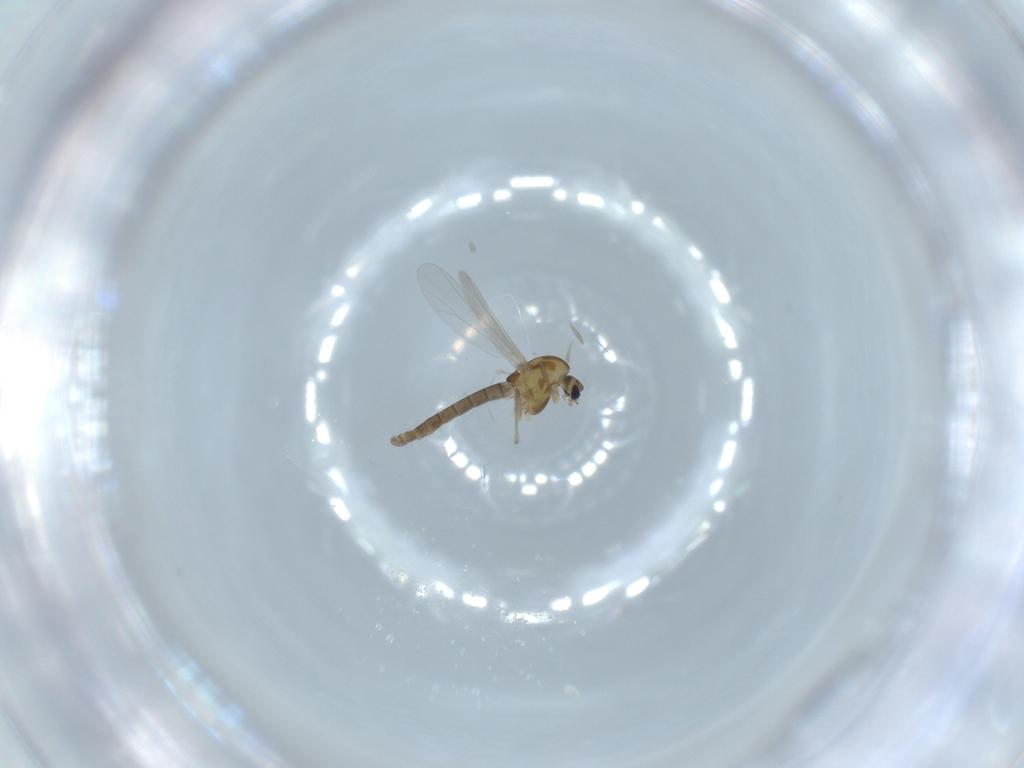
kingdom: Animalia
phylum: Arthropoda
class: Insecta
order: Diptera
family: Chironomidae
